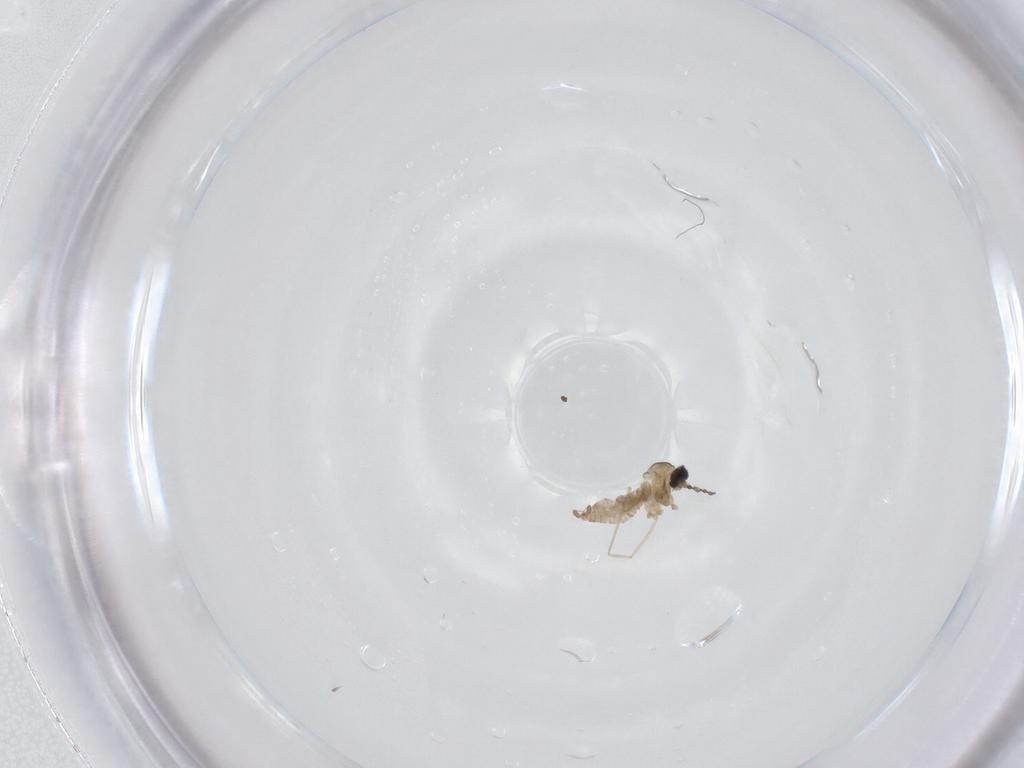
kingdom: Animalia
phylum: Arthropoda
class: Insecta
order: Diptera
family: Cecidomyiidae
